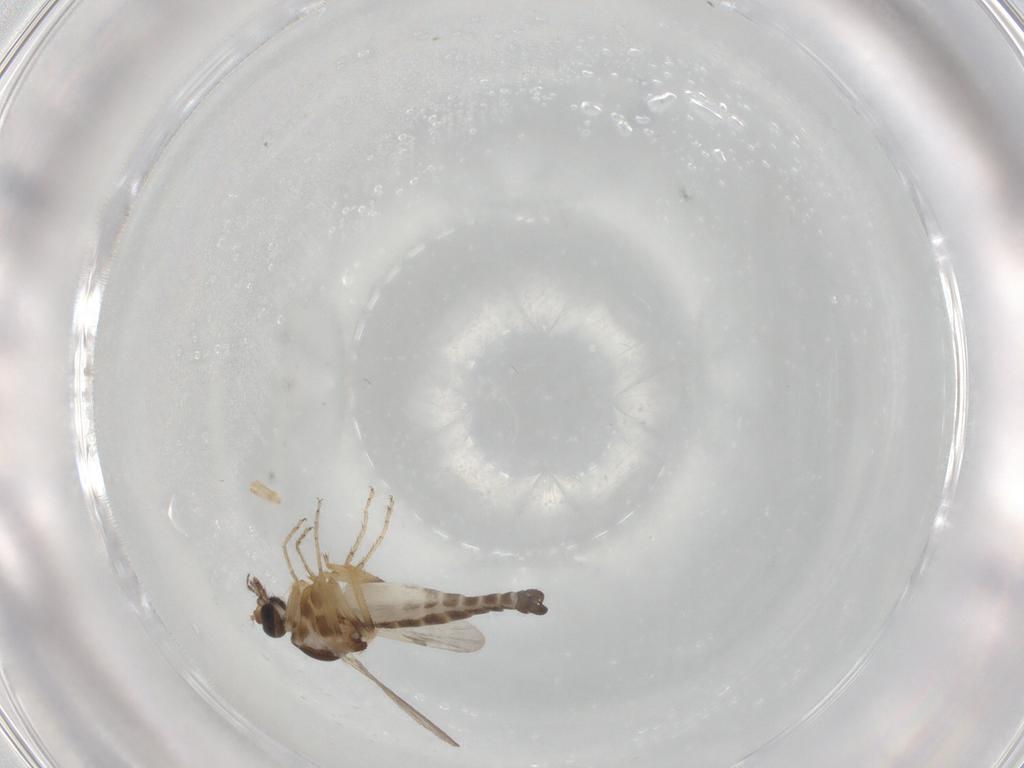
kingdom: Animalia
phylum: Arthropoda
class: Insecta
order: Diptera
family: Ceratopogonidae
